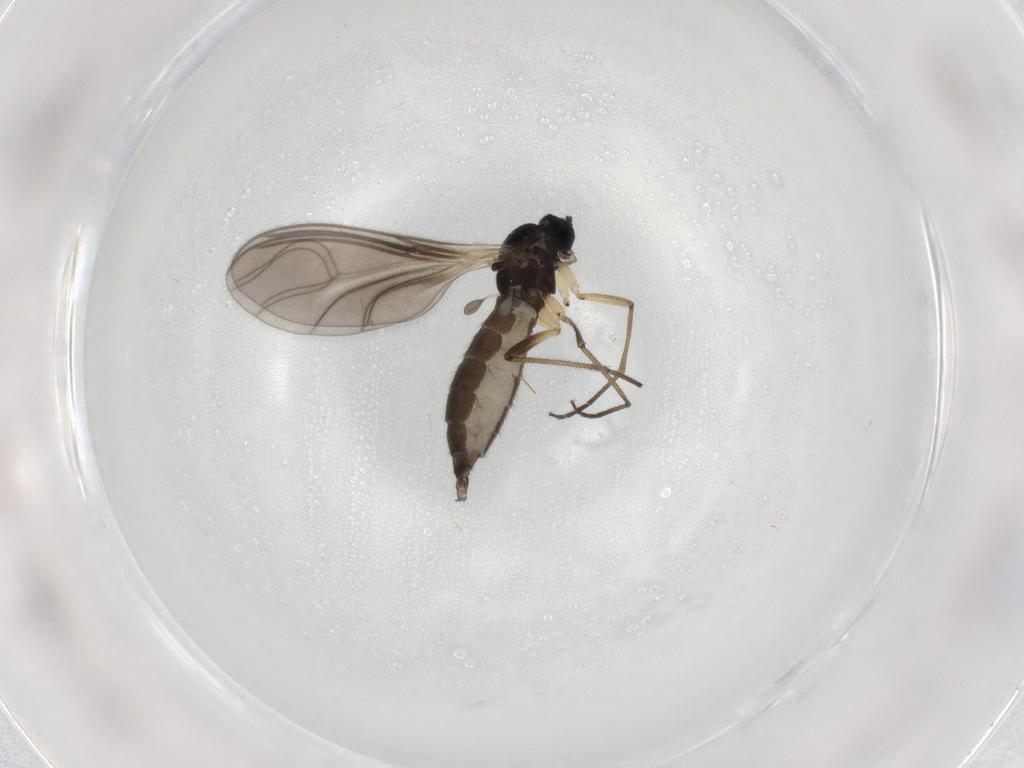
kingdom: Animalia
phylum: Arthropoda
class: Insecta
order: Diptera
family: Sciaridae
